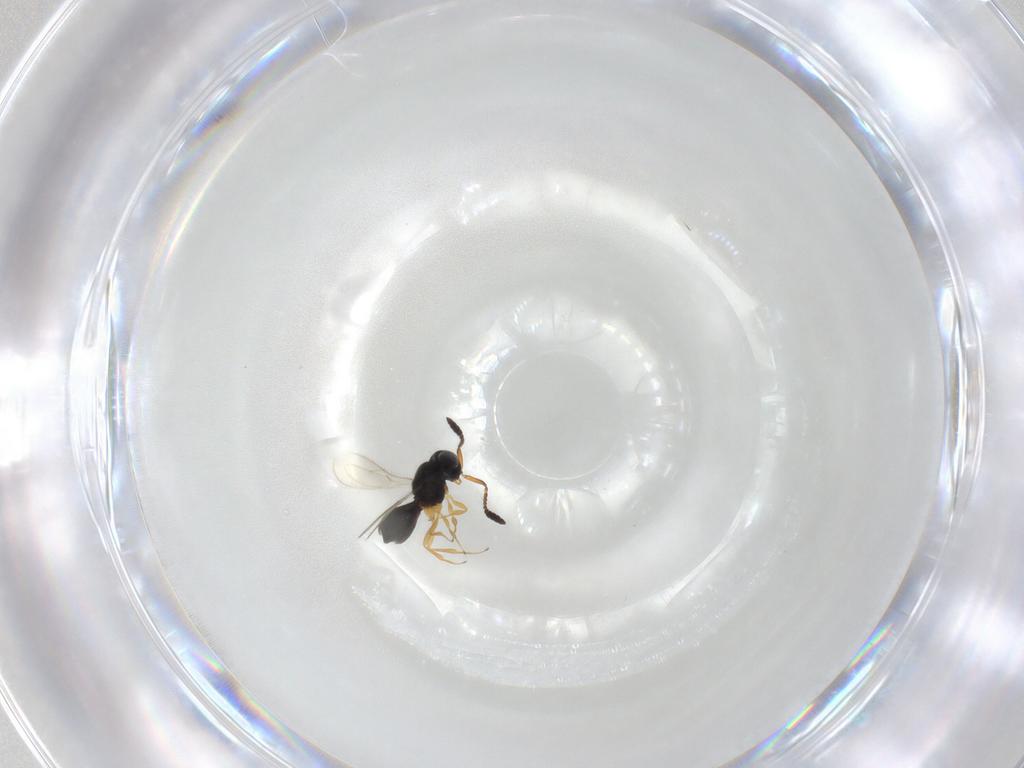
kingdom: Animalia
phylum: Arthropoda
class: Insecta
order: Hymenoptera
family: Scelionidae
